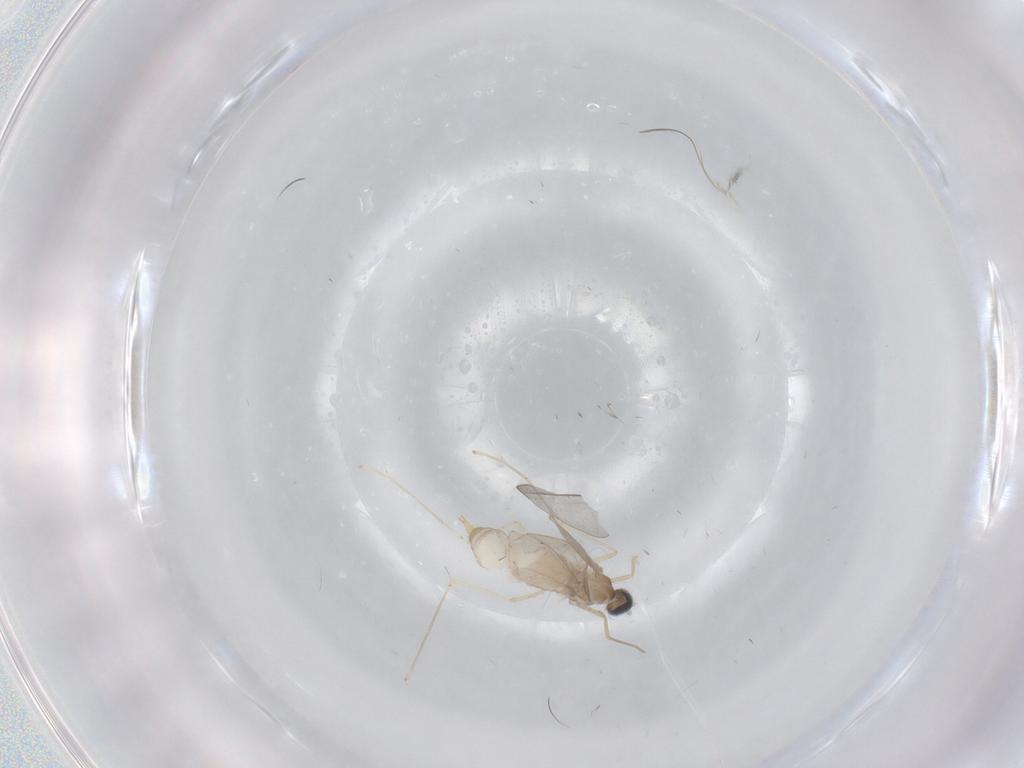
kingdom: Animalia
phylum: Arthropoda
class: Insecta
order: Diptera
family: Cecidomyiidae
